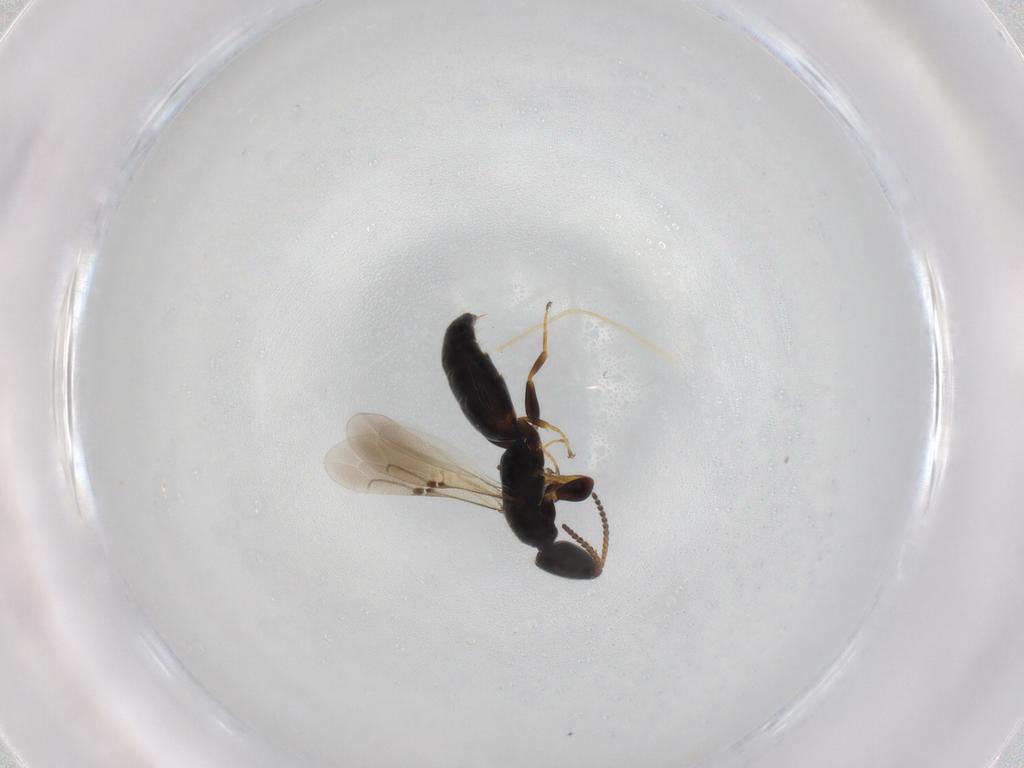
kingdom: Animalia
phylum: Arthropoda
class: Insecta
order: Hymenoptera
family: Bethylidae
